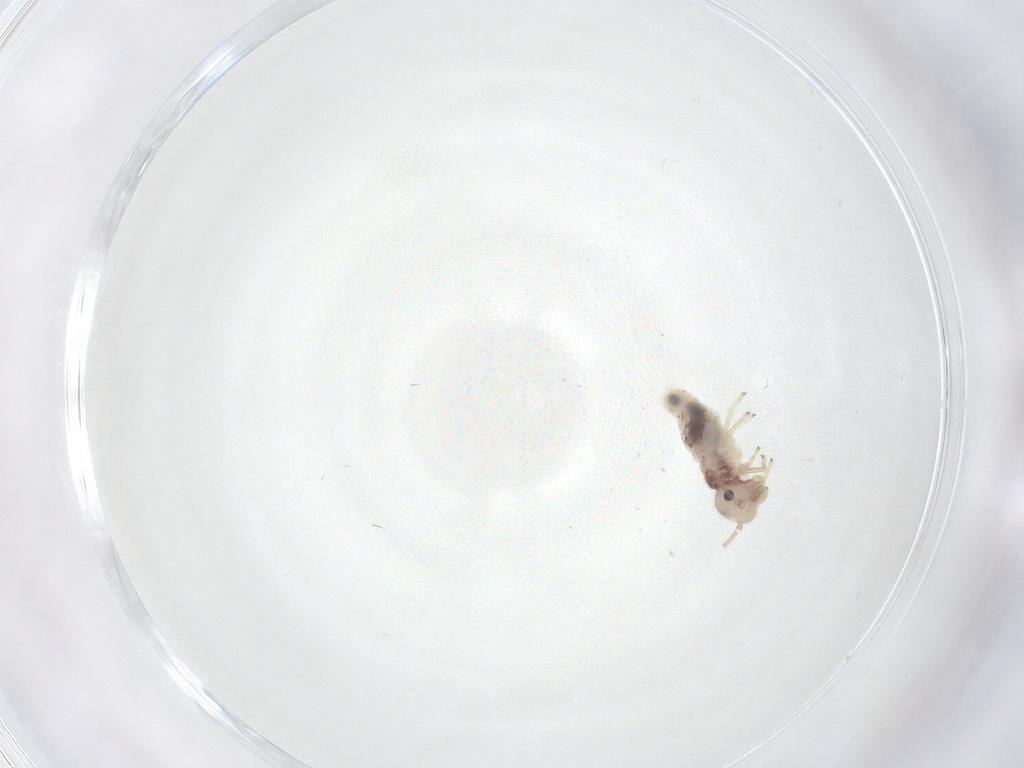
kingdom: Animalia
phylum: Arthropoda
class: Insecta
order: Psocodea
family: Caeciliusidae
